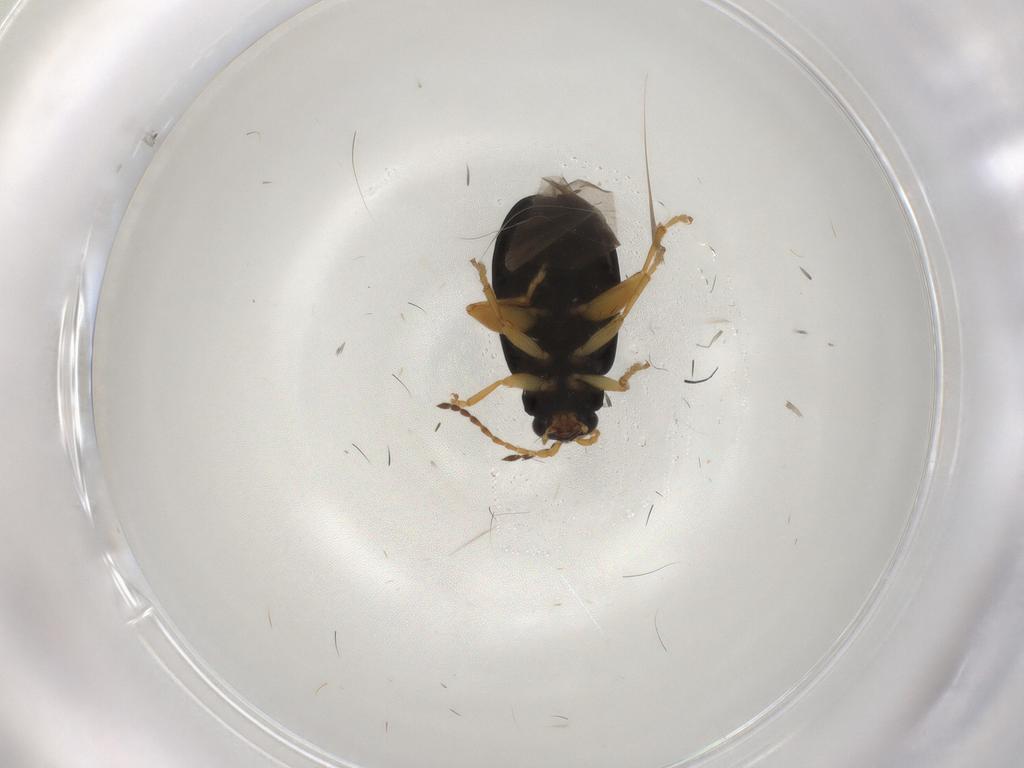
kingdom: Animalia
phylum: Arthropoda
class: Insecta
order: Coleoptera
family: Chrysomelidae
